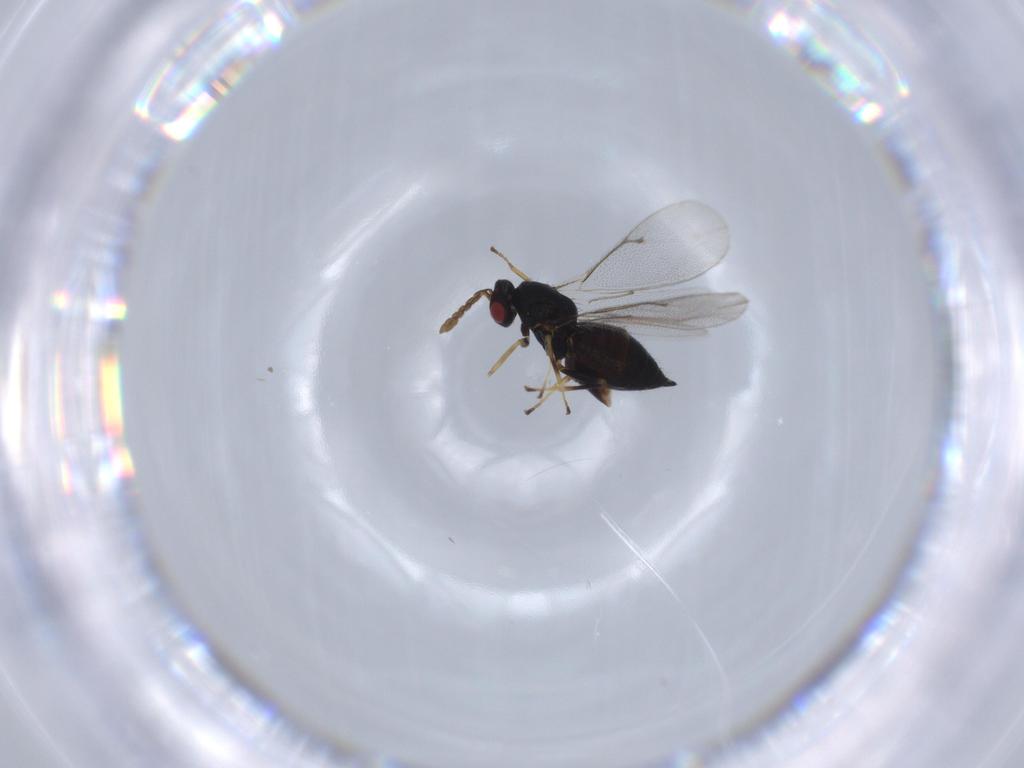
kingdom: Animalia
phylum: Arthropoda
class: Insecta
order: Hymenoptera
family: Eulophidae
